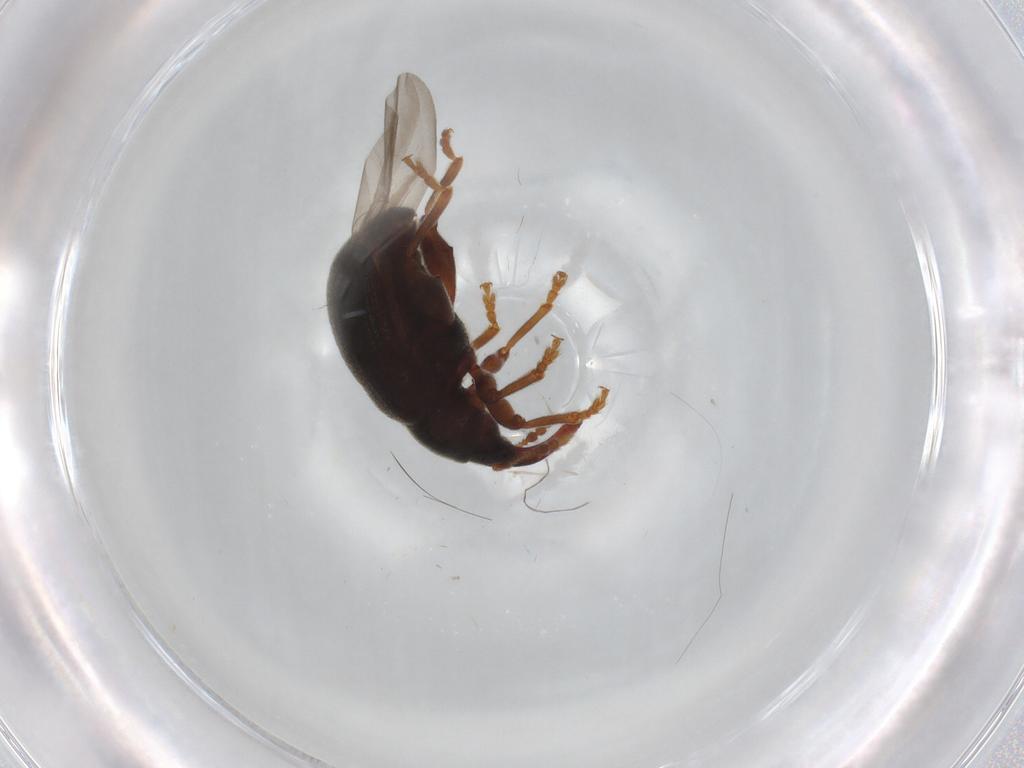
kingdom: Animalia
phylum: Arthropoda
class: Insecta
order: Coleoptera
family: Curculionidae
